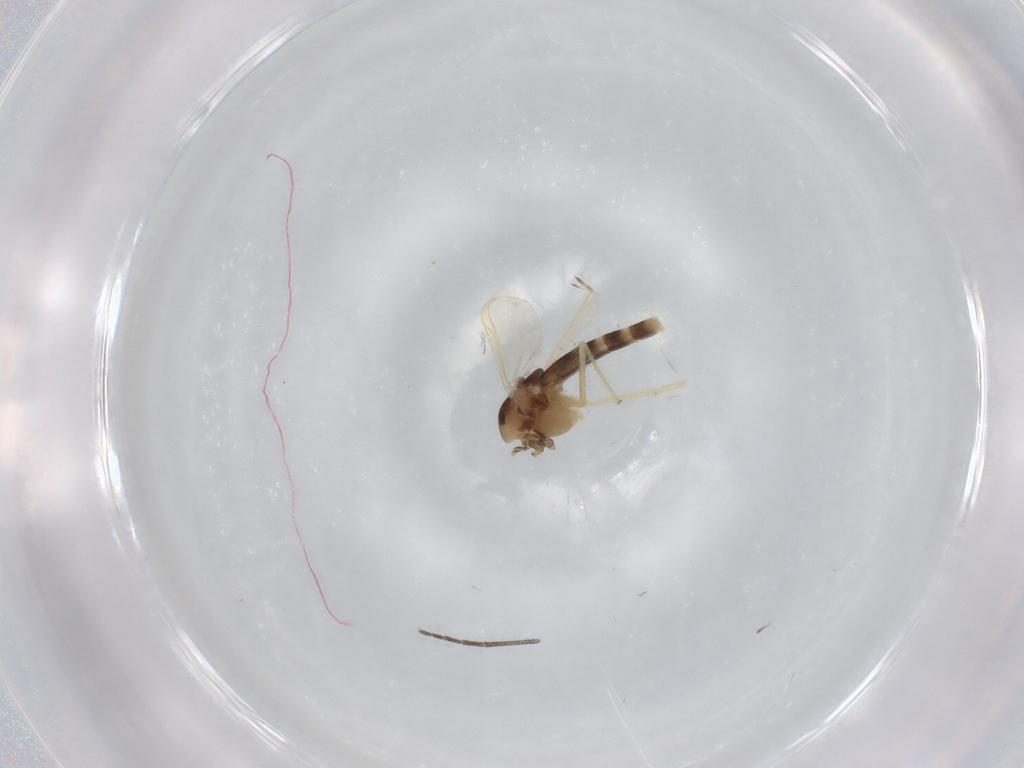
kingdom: Animalia
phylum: Arthropoda
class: Insecta
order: Diptera
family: Chironomidae
